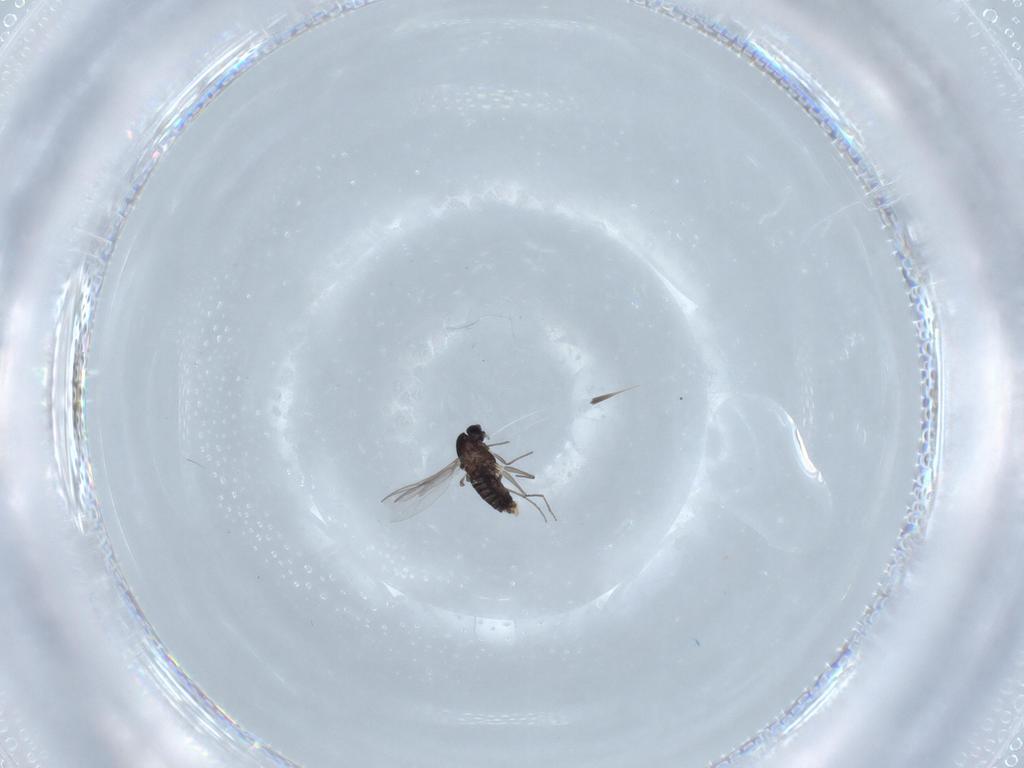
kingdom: Animalia
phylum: Arthropoda
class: Insecta
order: Diptera
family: Chironomidae
